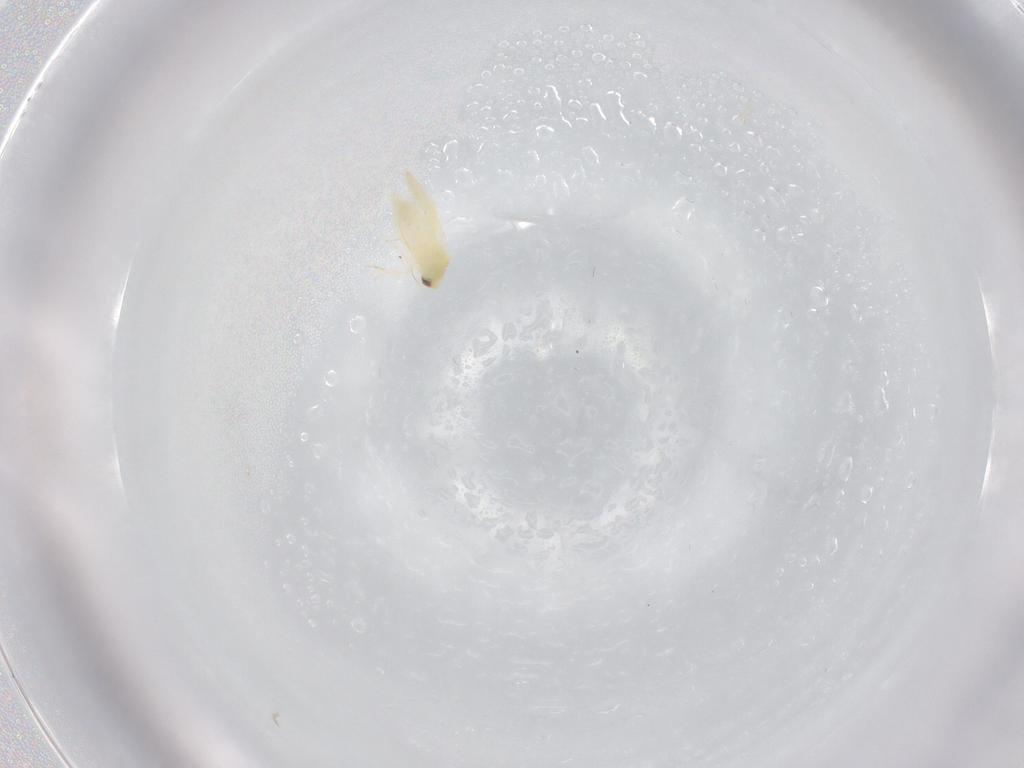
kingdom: Animalia
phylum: Arthropoda
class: Insecta
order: Hemiptera
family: Aleyrodidae
